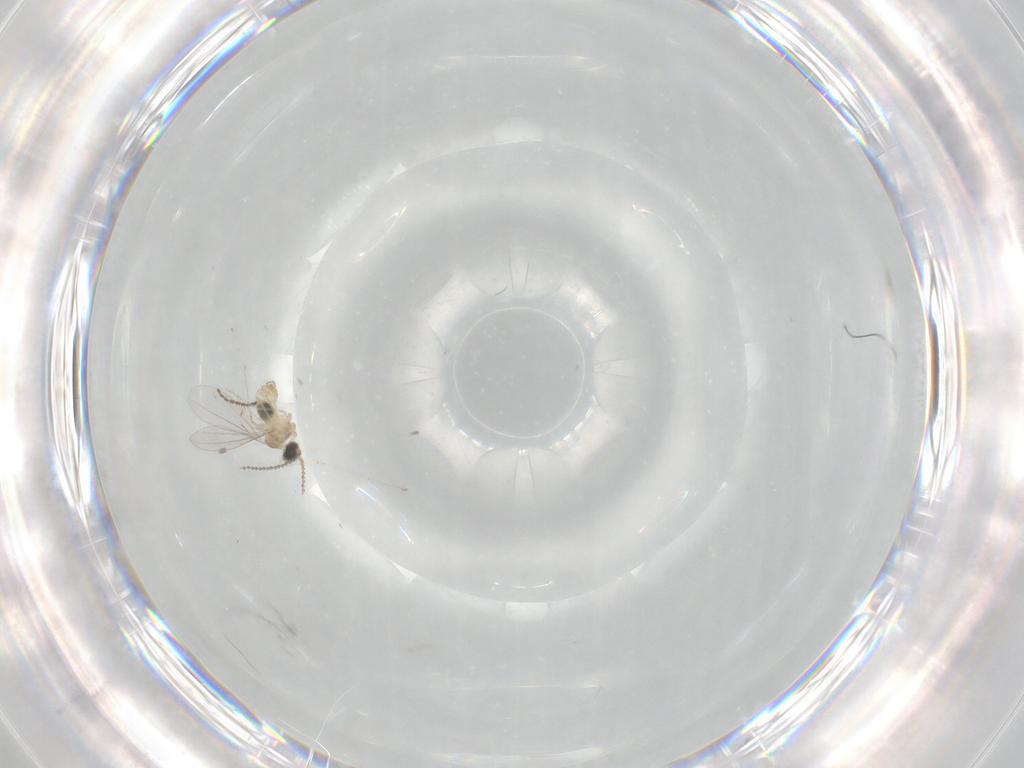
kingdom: Animalia
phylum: Arthropoda
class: Insecta
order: Diptera
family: Cecidomyiidae
